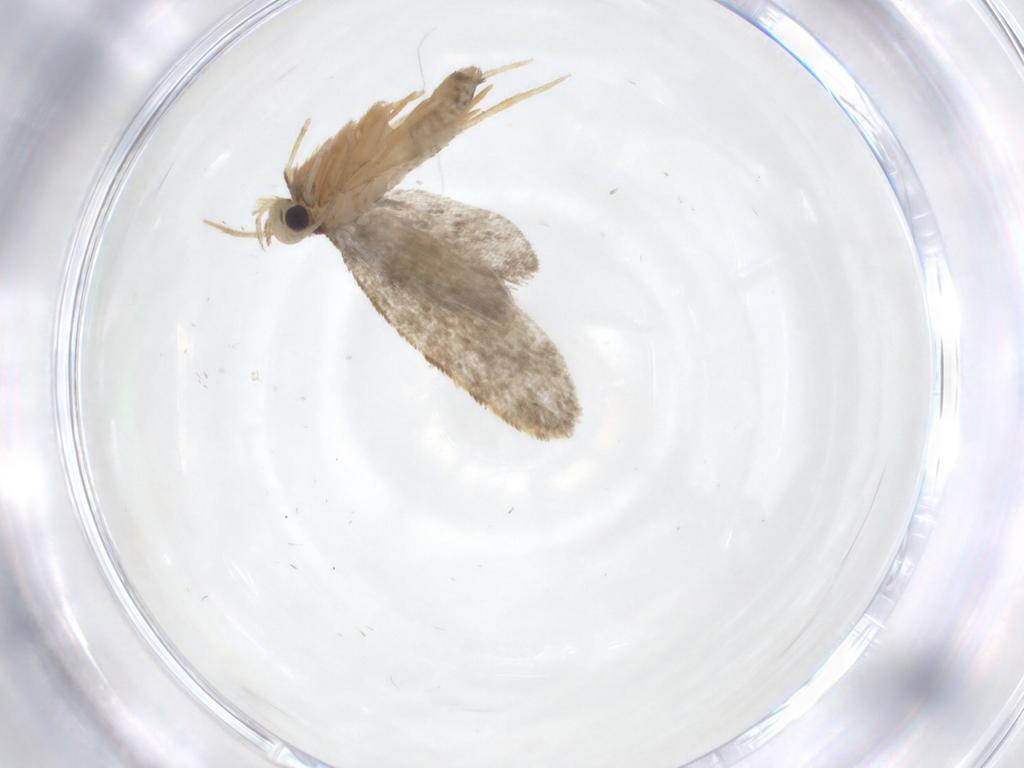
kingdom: Animalia
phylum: Arthropoda
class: Insecta
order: Lepidoptera
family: Psychidae
